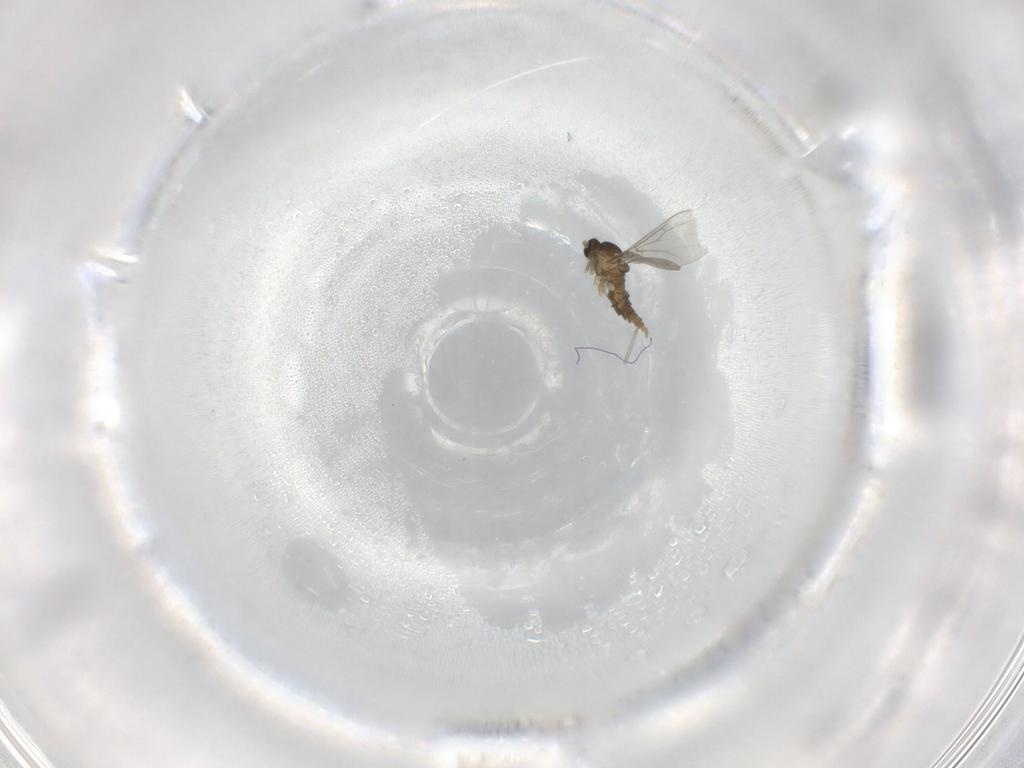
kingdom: Animalia
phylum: Arthropoda
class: Insecta
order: Diptera
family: Cecidomyiidae
